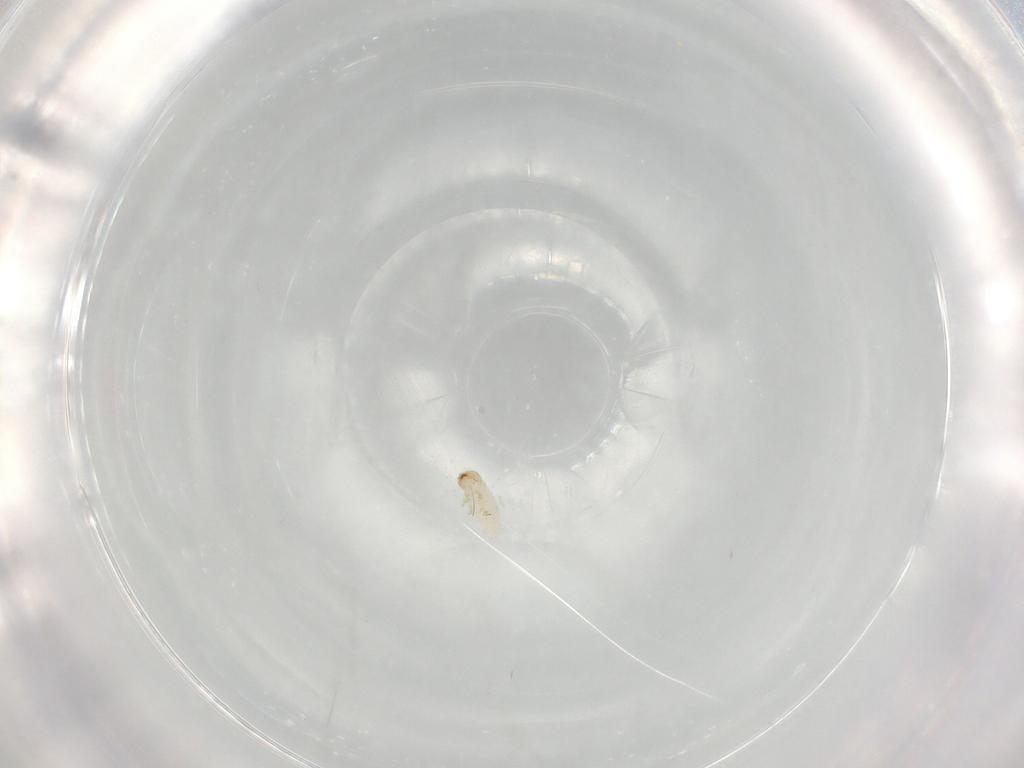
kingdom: Animalia
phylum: Arthropoda
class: Insecta
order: Coleoptera
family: Chrysomelidae
